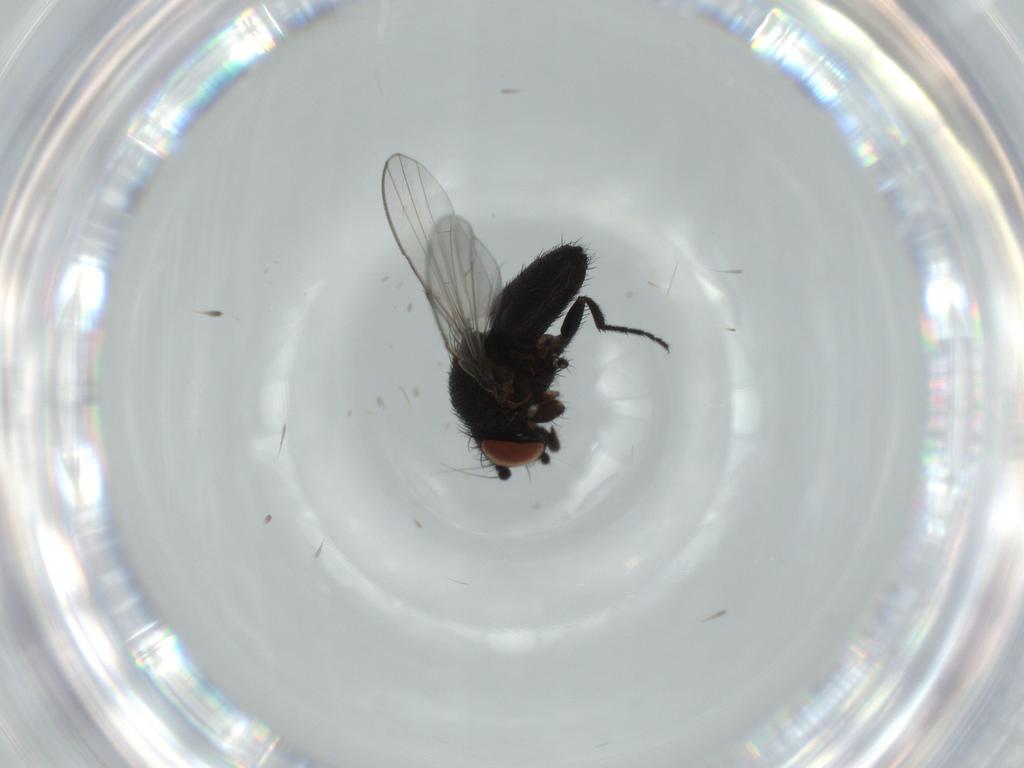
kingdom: Animalia
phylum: Arthropoda
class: Insecta
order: Diptera
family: Milichiidae
